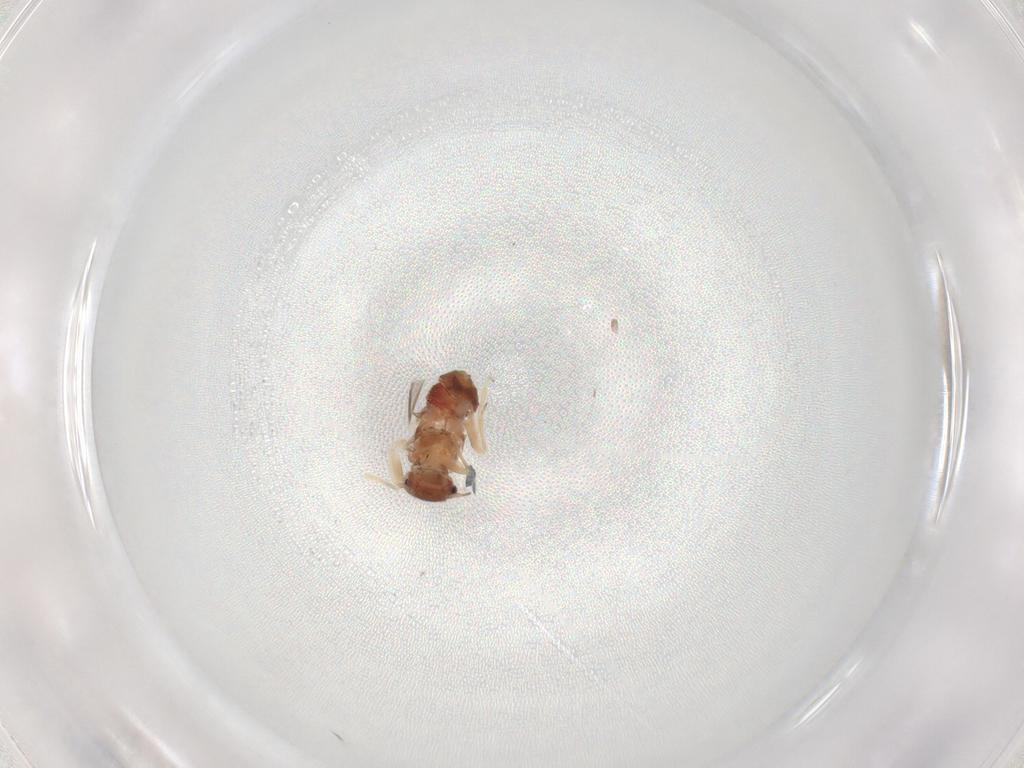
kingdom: Animalia
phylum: Arthropoda
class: Insecta
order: Psocodea
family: Archipsocidae
